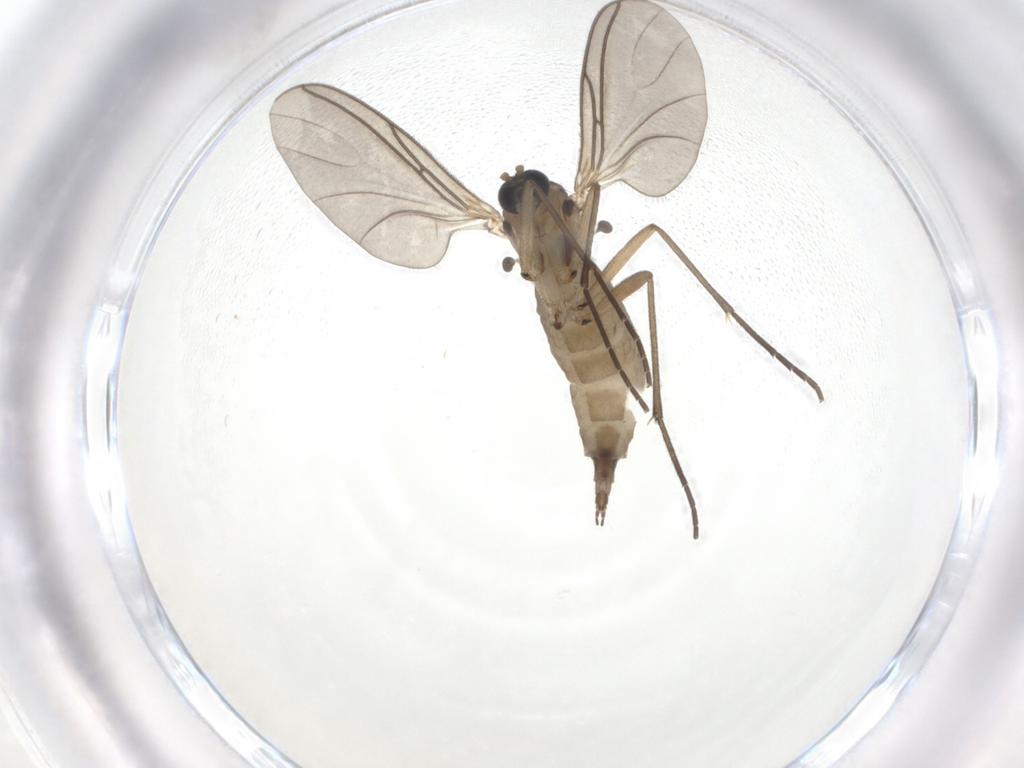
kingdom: Animalia
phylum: Arthropoda
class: Insecta
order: Diptera
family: Sciaridae
